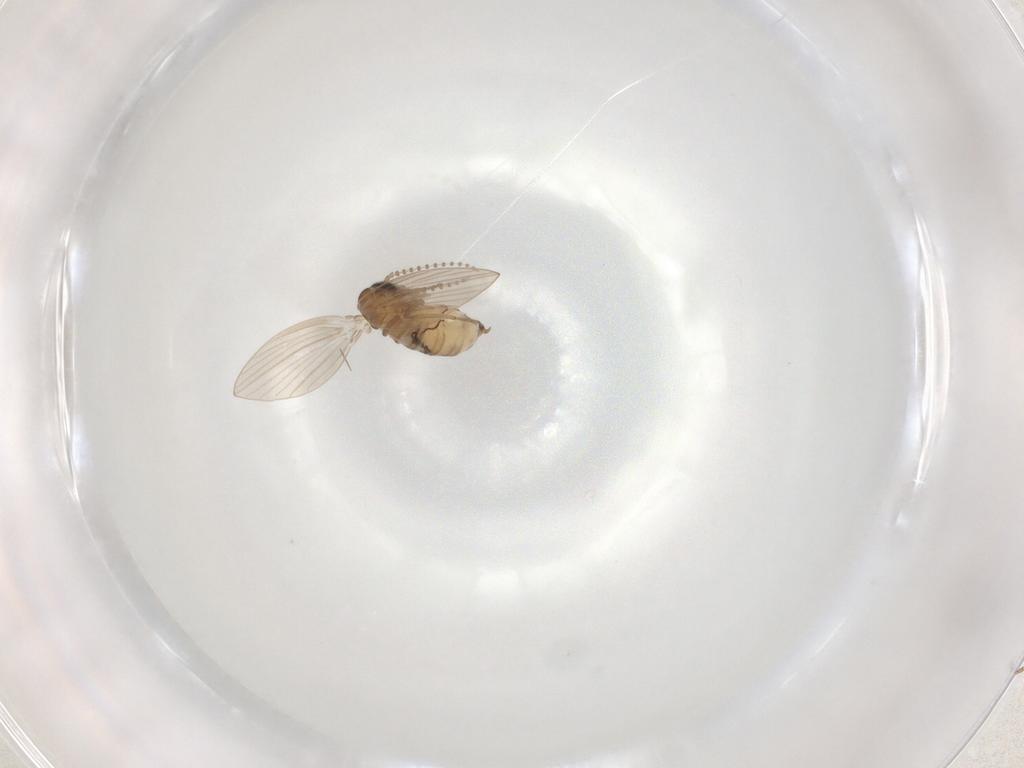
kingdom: Animalia
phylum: Arthropoda
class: Insecta
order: Diptera
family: Psychodidae
